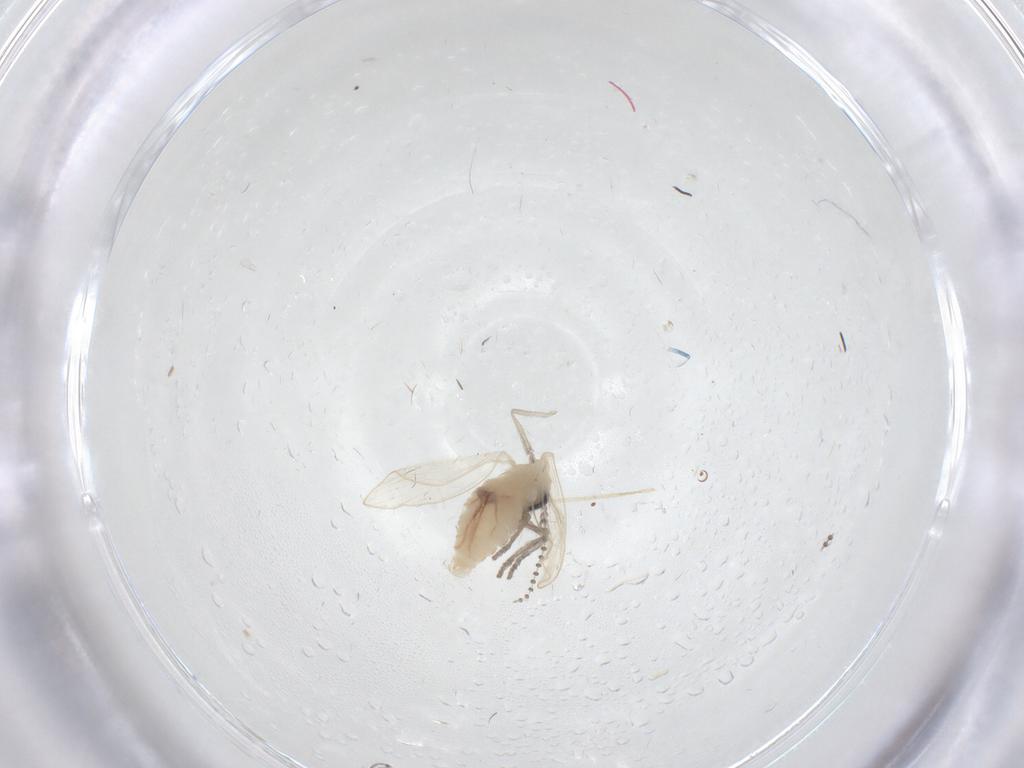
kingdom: Animalia
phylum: Arthropoda
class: Insecta
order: Diptera
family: Psychodidae
